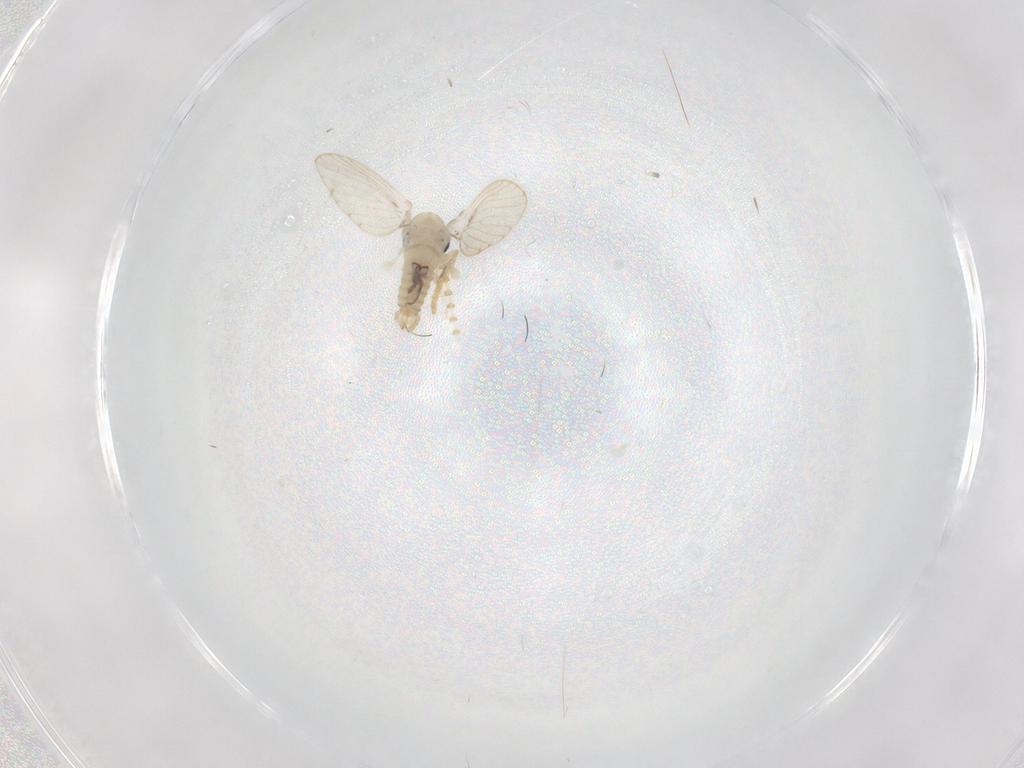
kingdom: Animalia
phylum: Arthropoda
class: Insecta
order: Diptera
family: Psychodidae
